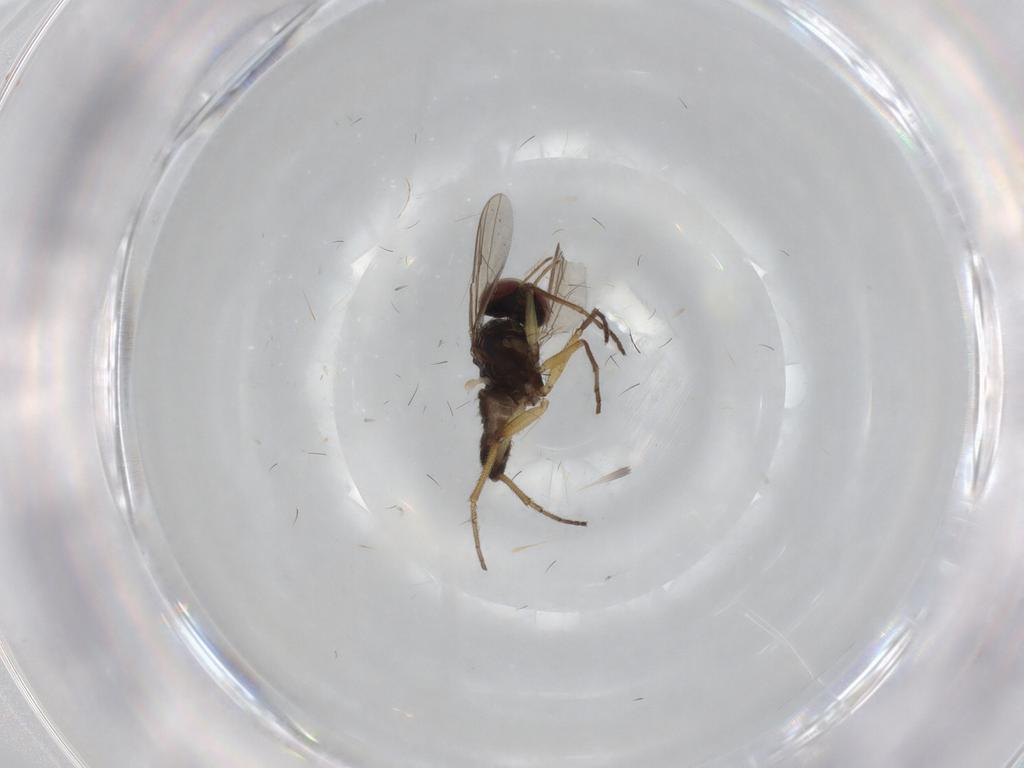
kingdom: Animalia
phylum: Arthropoda
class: Insecta
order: Diptera
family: Dolichopodidae
